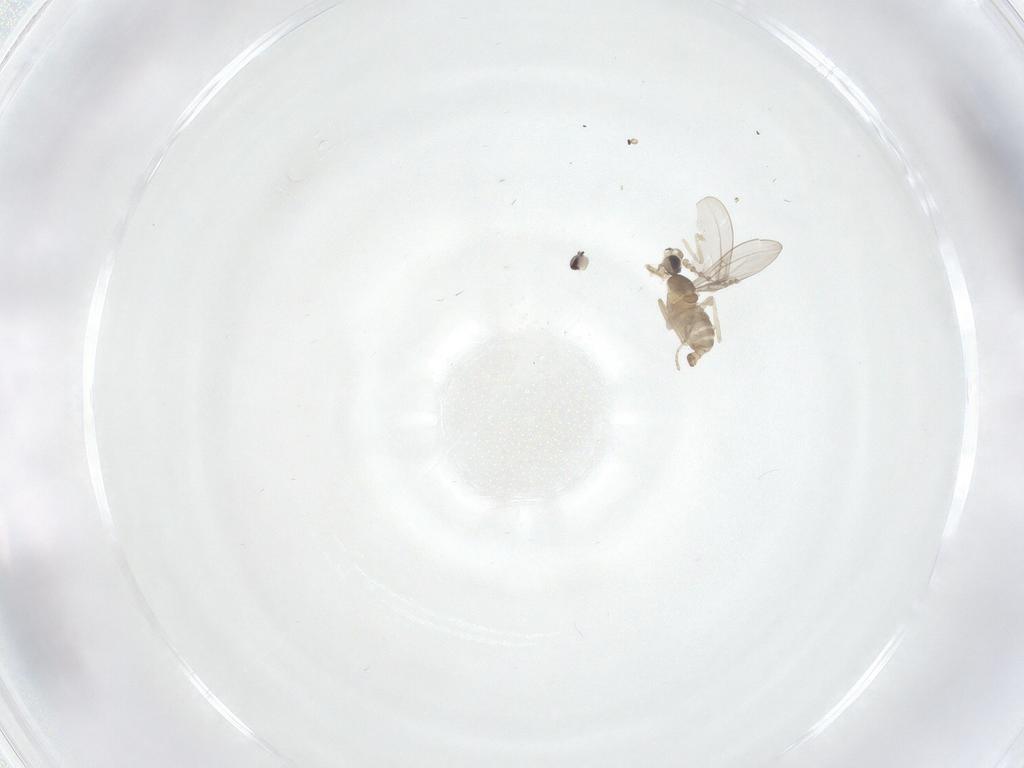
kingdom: Animalia
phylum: Arthropoda
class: Insecta
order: Diptera
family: Cecidomyiidae
